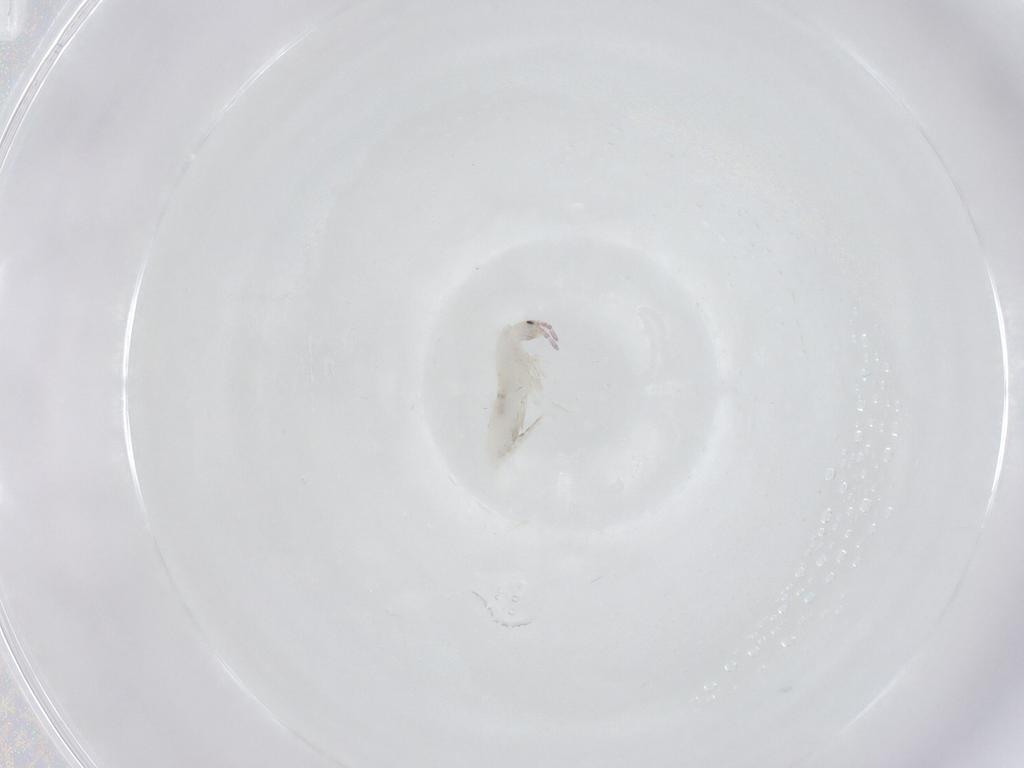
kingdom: Animalia
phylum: Arthropoda
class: Collembola
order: Entomobryomorpha
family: Entomobryidae
